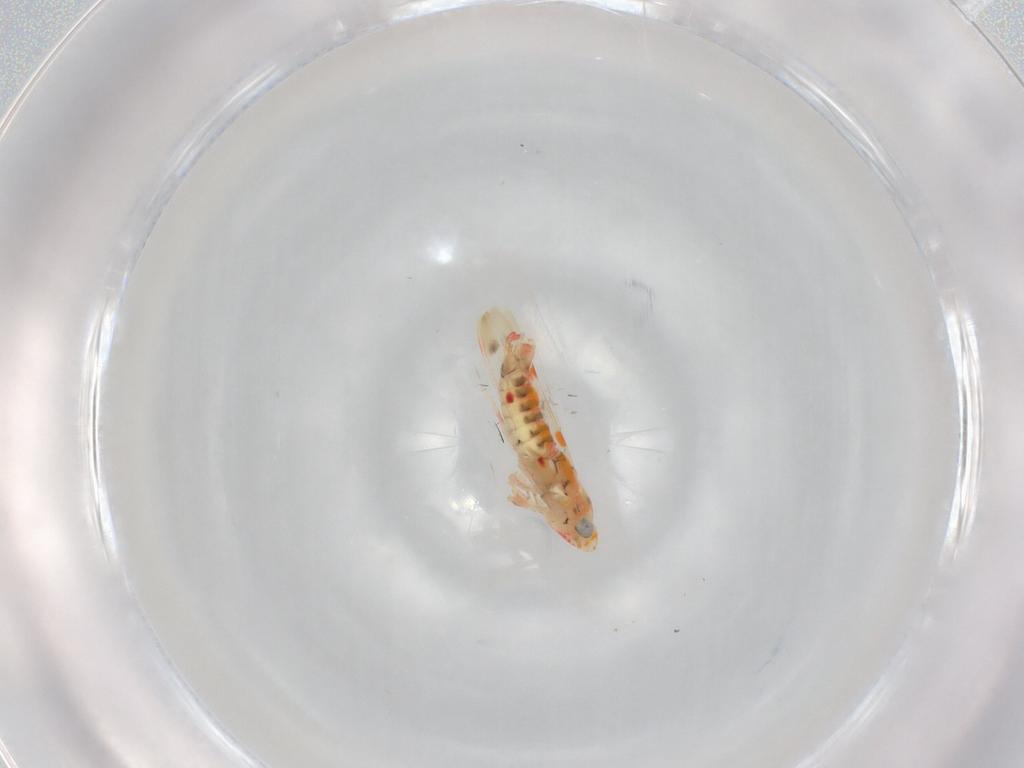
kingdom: Animalia
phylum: Arthropoda
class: Insecta
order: Hemiptera
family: Cicadellidae
